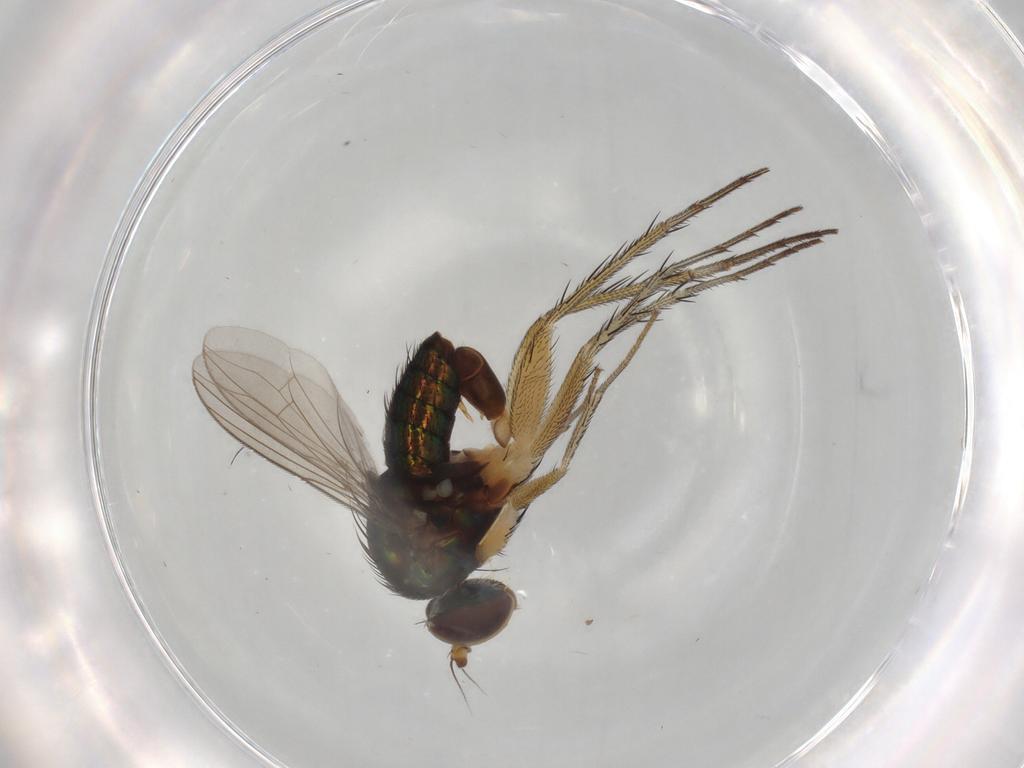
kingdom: Animalia
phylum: Arthropoda
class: Insecta
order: Diptera
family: Dolichopodidae
